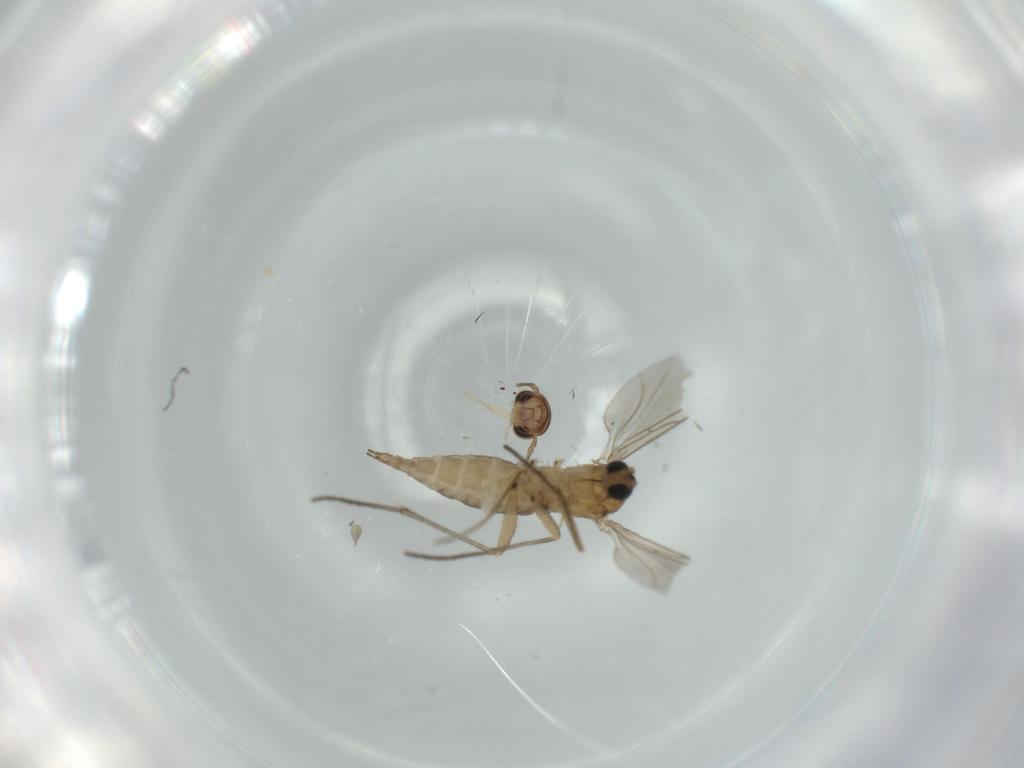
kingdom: Animalia
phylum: Arthropoda
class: Insecta
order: Diptera
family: Sciaridae
